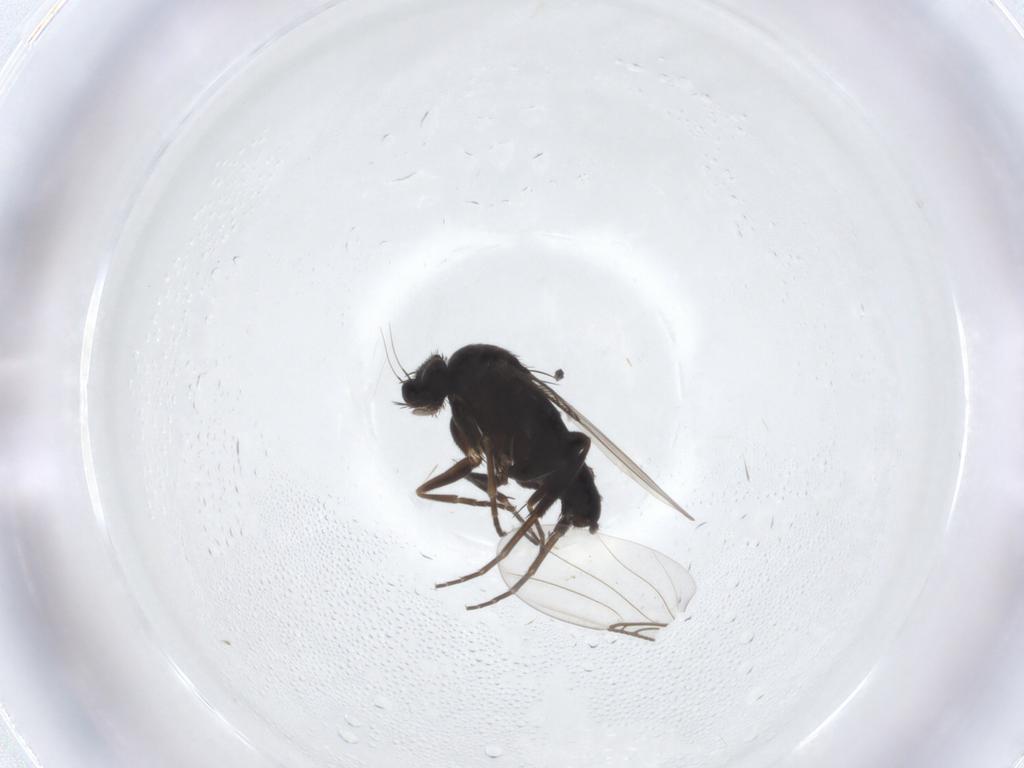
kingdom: Animalia
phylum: Arthropoda
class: Insecta
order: Diptera
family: Phoridae
